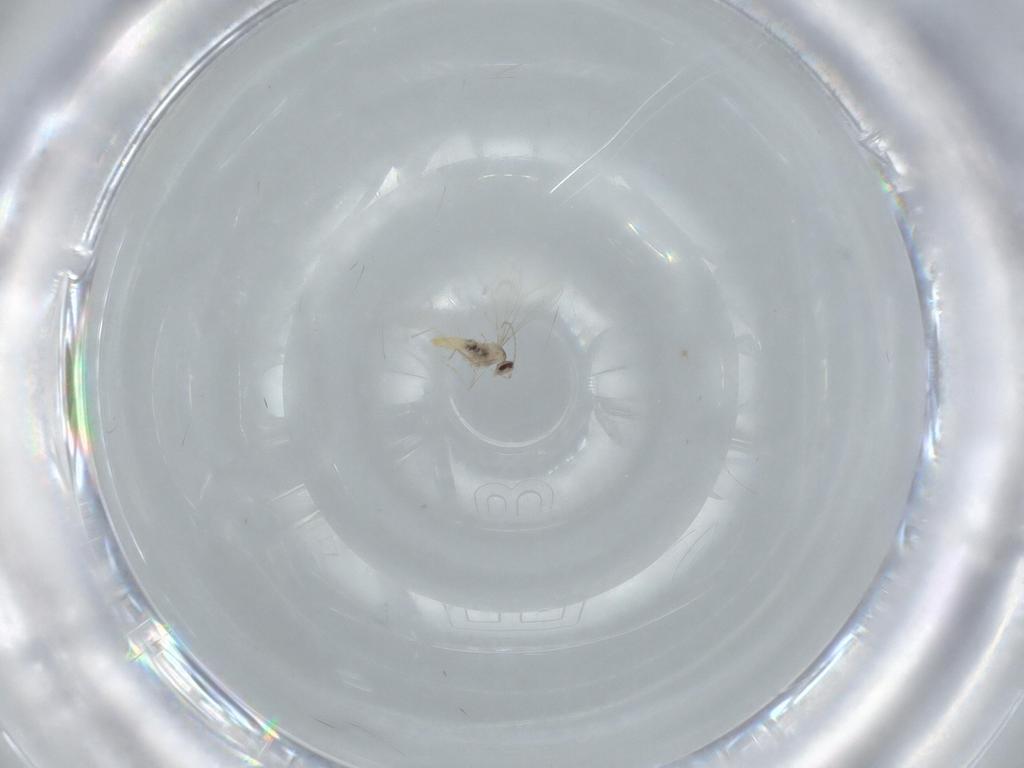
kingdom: Animalia
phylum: Arthropoda
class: Insecta
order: Diptera
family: Cecidomyiidae
